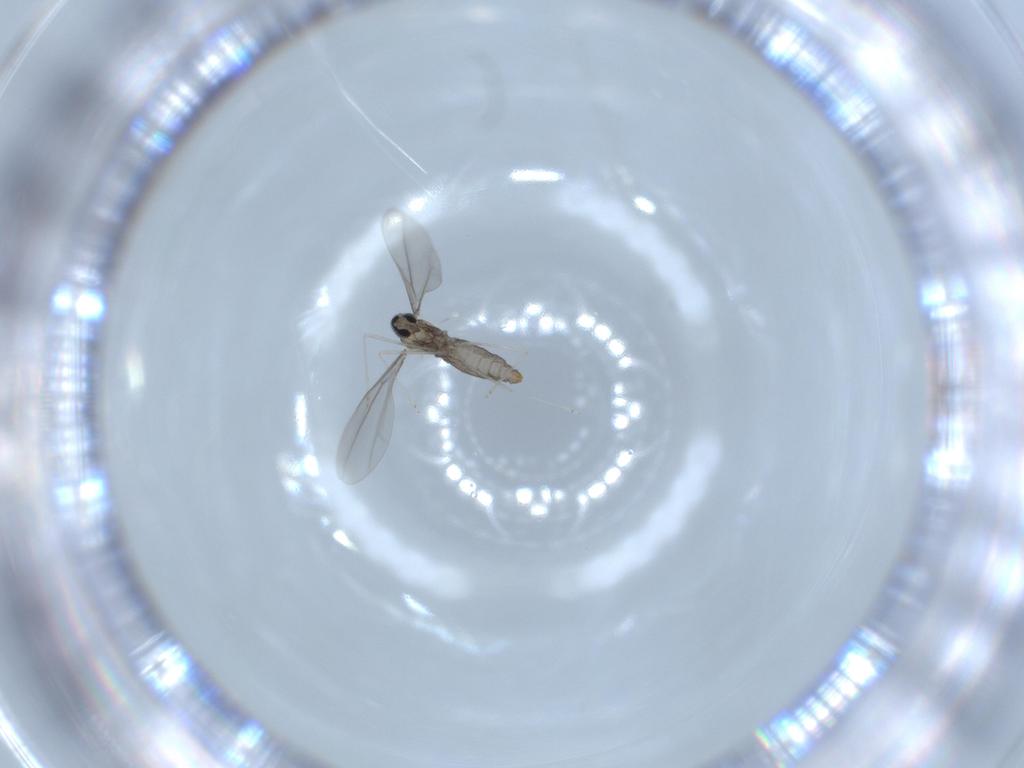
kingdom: Animalia
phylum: Arthropoda
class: Insecta
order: Diptera
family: Cecidomyiidae
